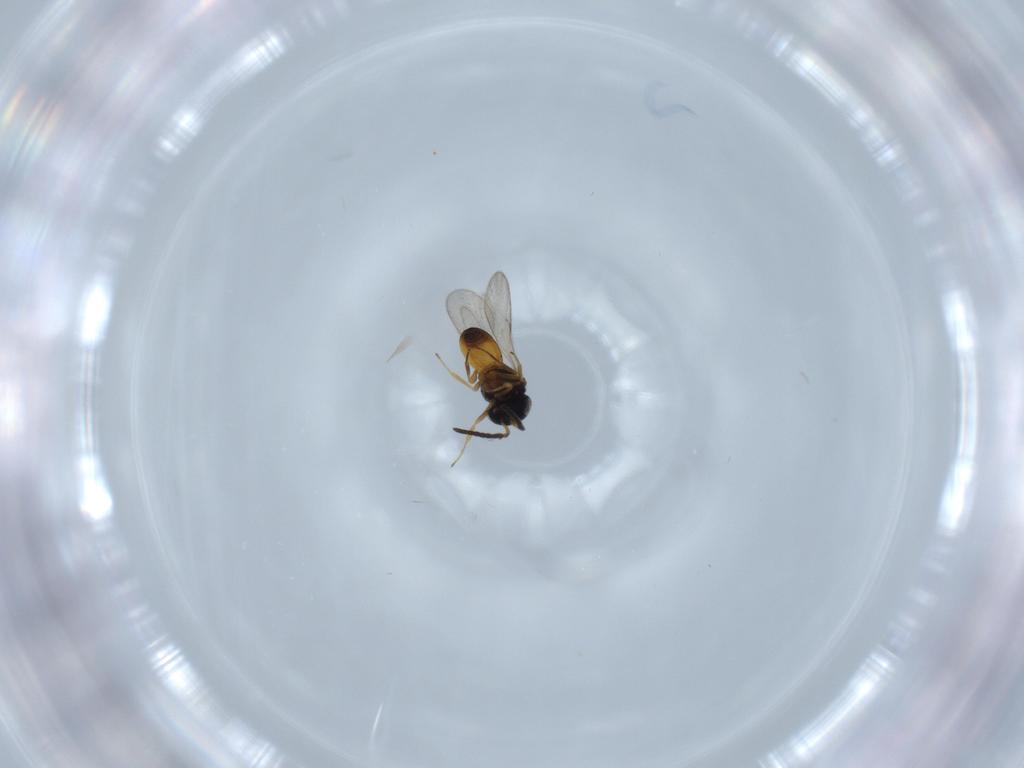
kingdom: Animalia
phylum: Arthropoda
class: Insecta
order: Hymenoptera
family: Scelionidae
